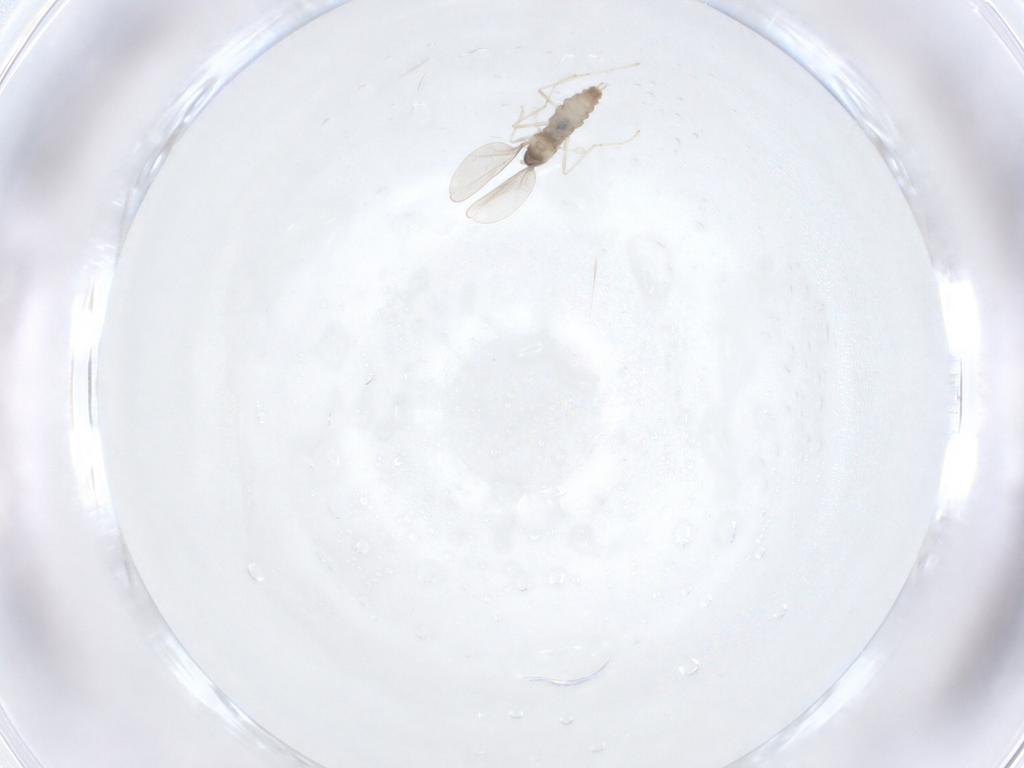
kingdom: Animalia
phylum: Arthropoda
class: Insecta
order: Diptera
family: Cecidomyiidae
